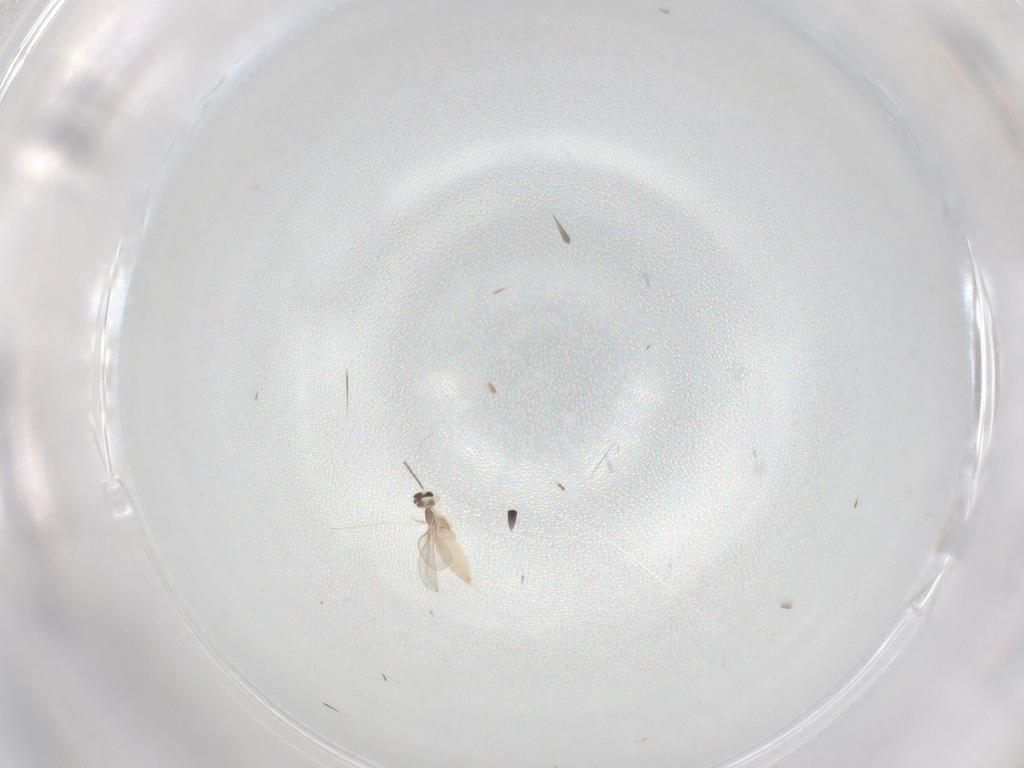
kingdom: Animalia
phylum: Arthropoda
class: Insecta
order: Diptera
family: Cecidomyiidae
